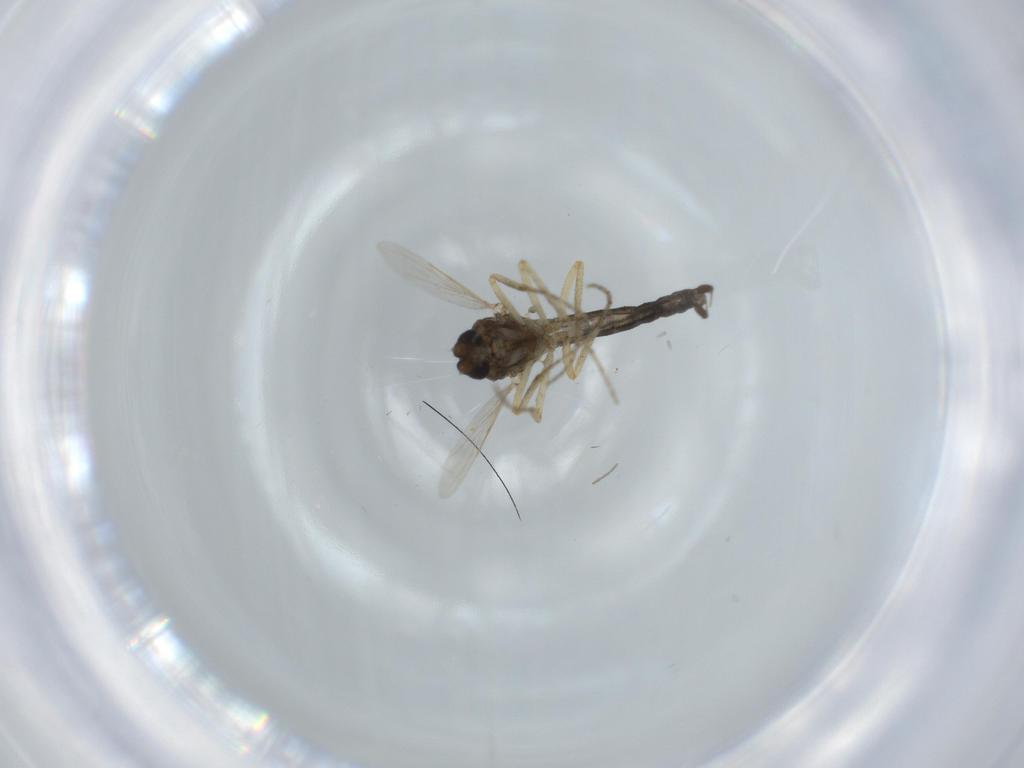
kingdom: Animalia
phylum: Arthropoda
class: Insecta
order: Diptera
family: Ceratopogonidae
